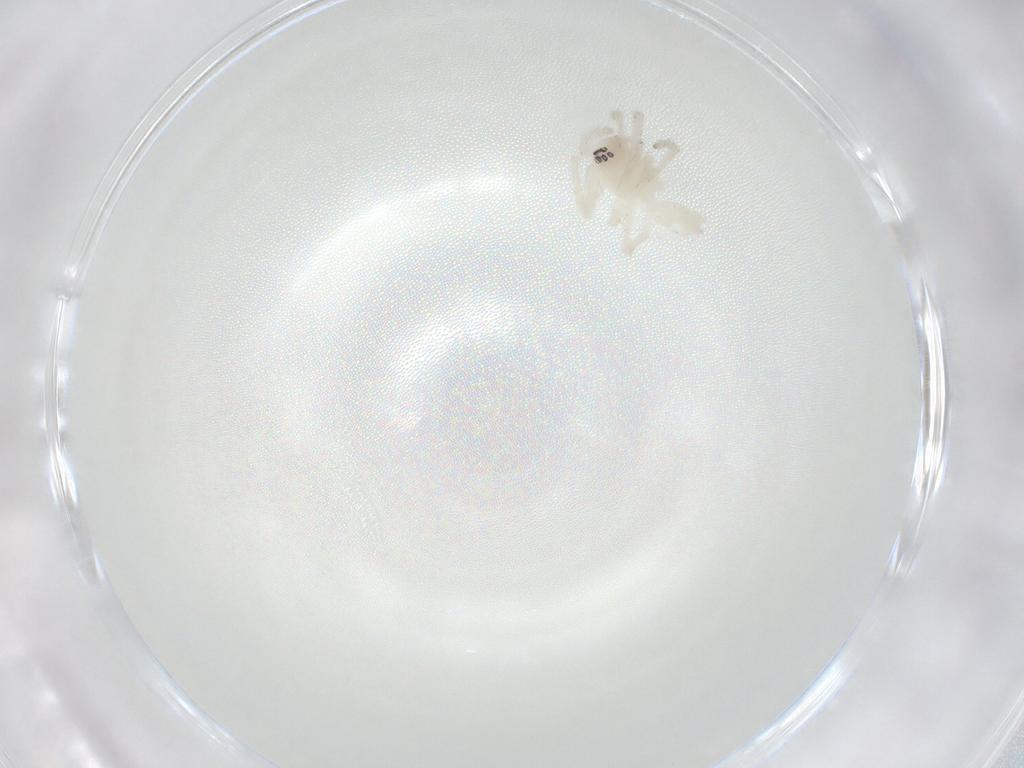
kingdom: Animalia
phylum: Arthropoda
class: Arachnida
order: Araneae
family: Anyphaenidae
